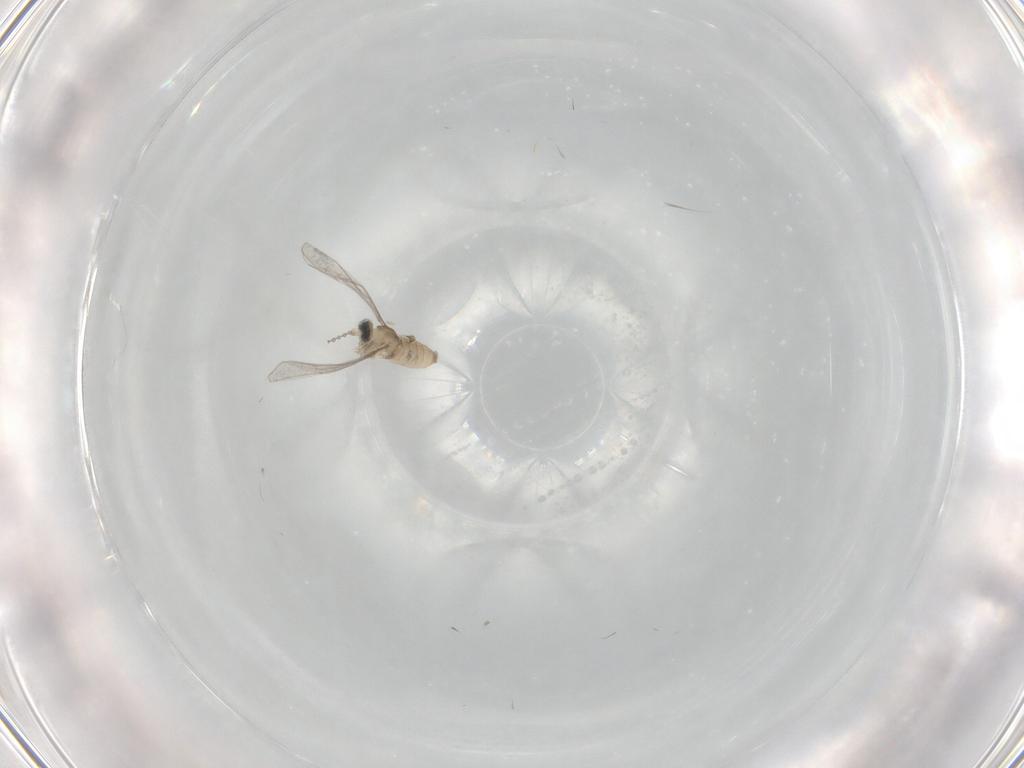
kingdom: Animalia
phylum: Arthropoda
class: Insecta
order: Diptera
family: Cecidomyiidae
